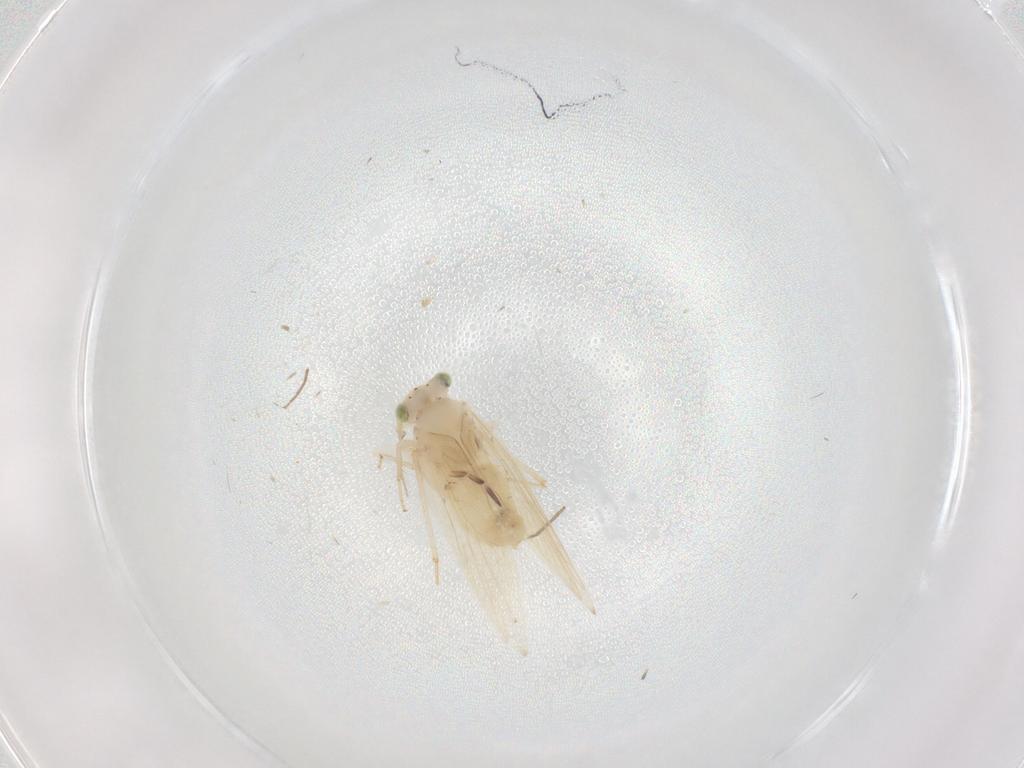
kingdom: Animalia
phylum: Arthropoda
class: Insecta
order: Psocodea
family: Lepidopsocidae
